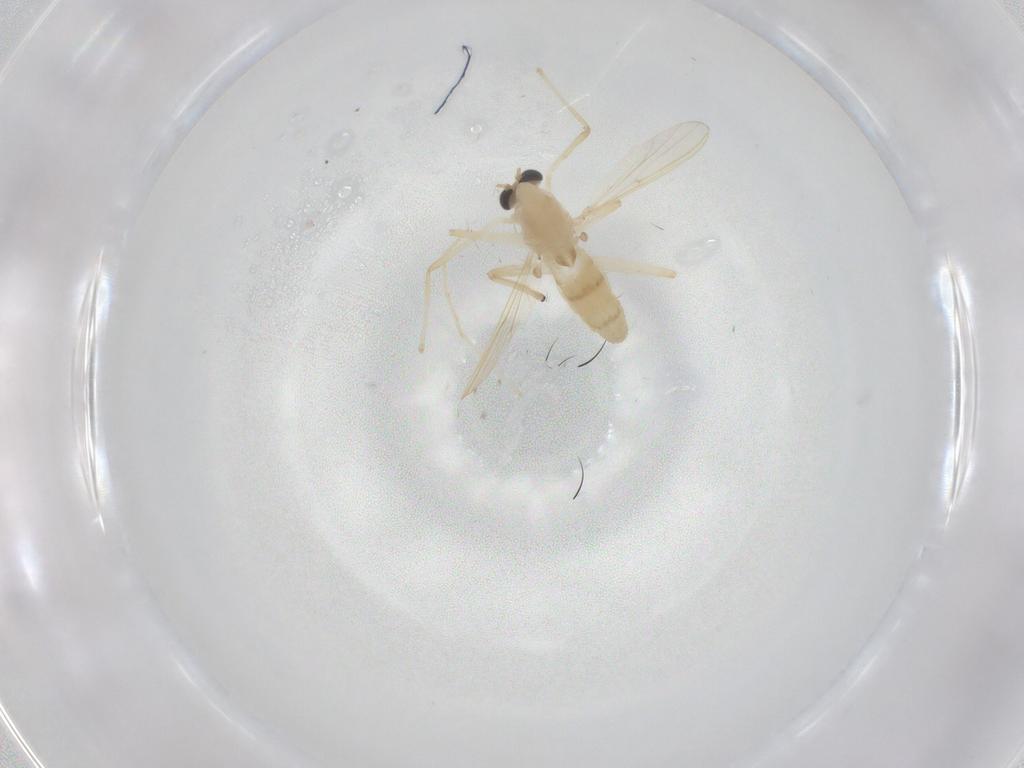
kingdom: Animalia
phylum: Arthropoda
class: Insecta
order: Diptera
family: Chironomidae
